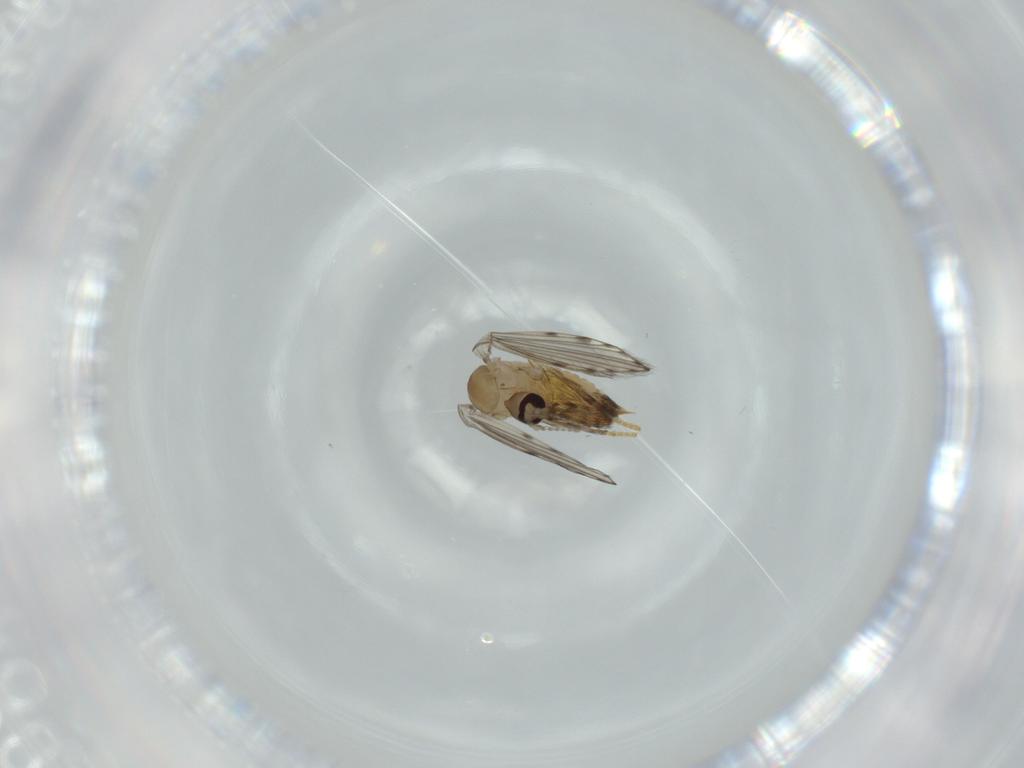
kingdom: Animalia
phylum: Arthropoda
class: Insecta
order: Diptera
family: Psychodidae
